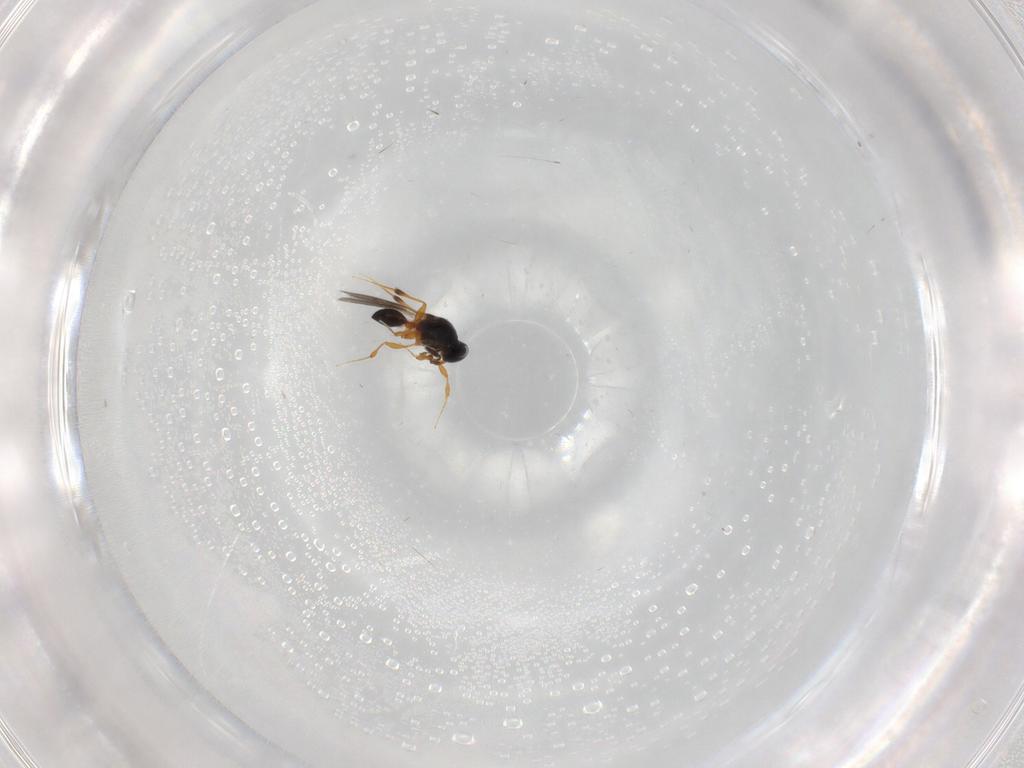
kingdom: Animalia
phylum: Arthropoda
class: Insecta
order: Hymenoptera
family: Platygastridae
